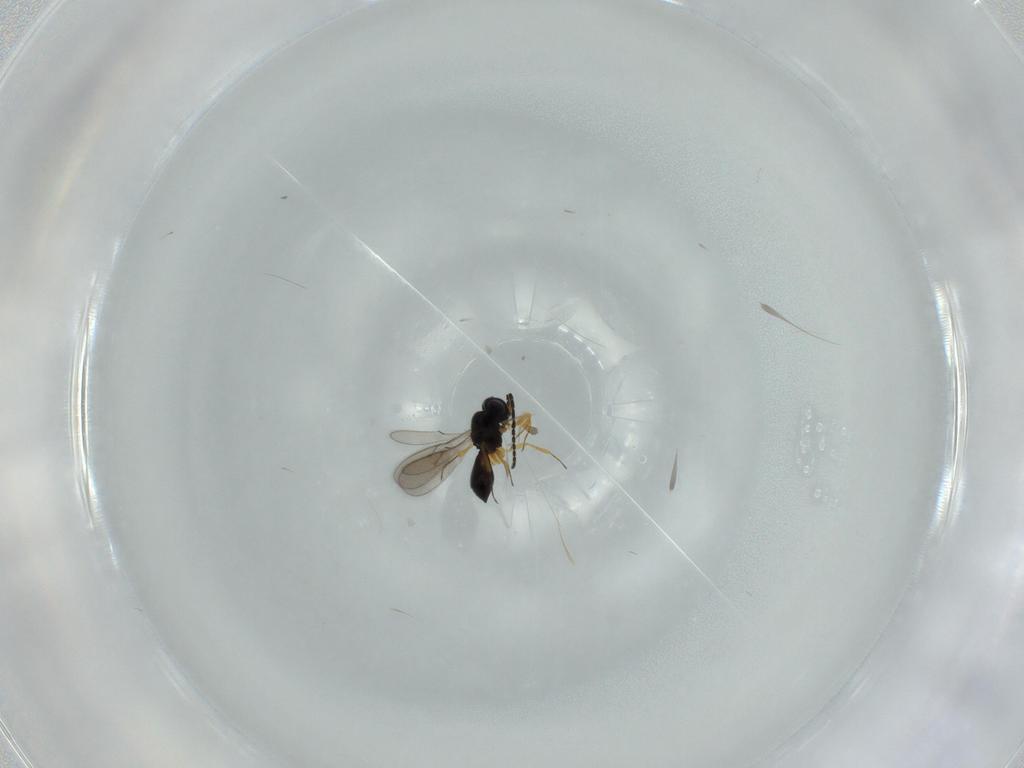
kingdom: Animalia
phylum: Arthropoda
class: Insecta
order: Hymenoptera
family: Scelionidae
